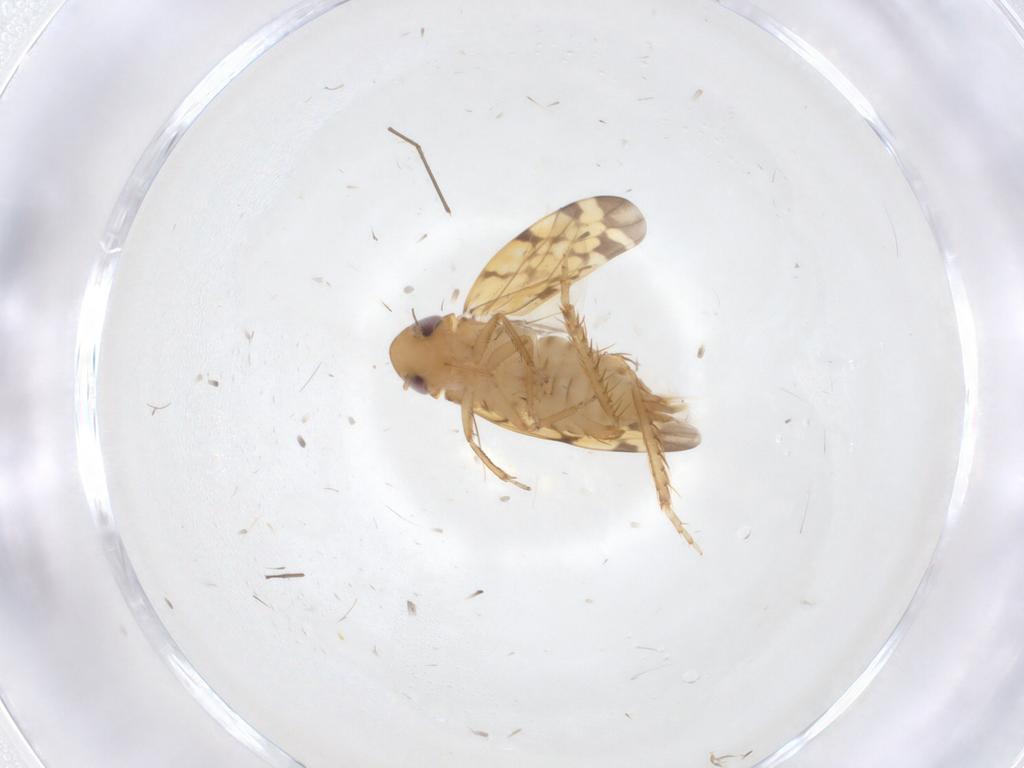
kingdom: Animalia
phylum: Arthropoda
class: Insecta
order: Hemiptera
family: Cicadellidae
